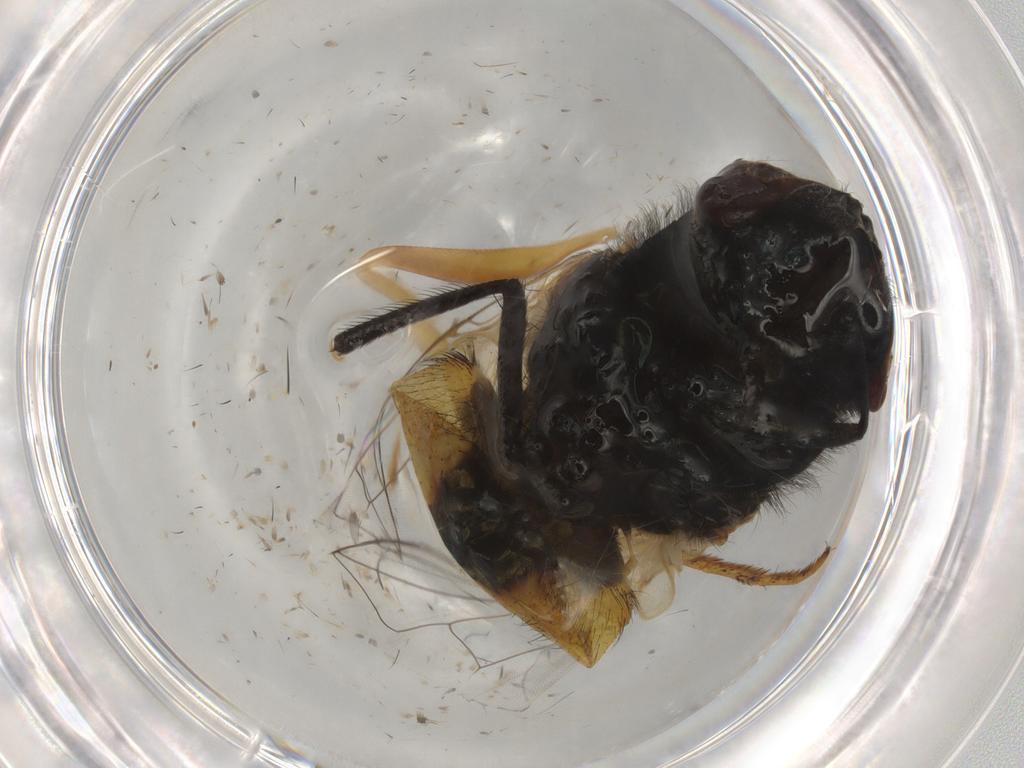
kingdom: Animalia
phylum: Arthropoda
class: Insecta
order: Diptera
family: Muscidae
